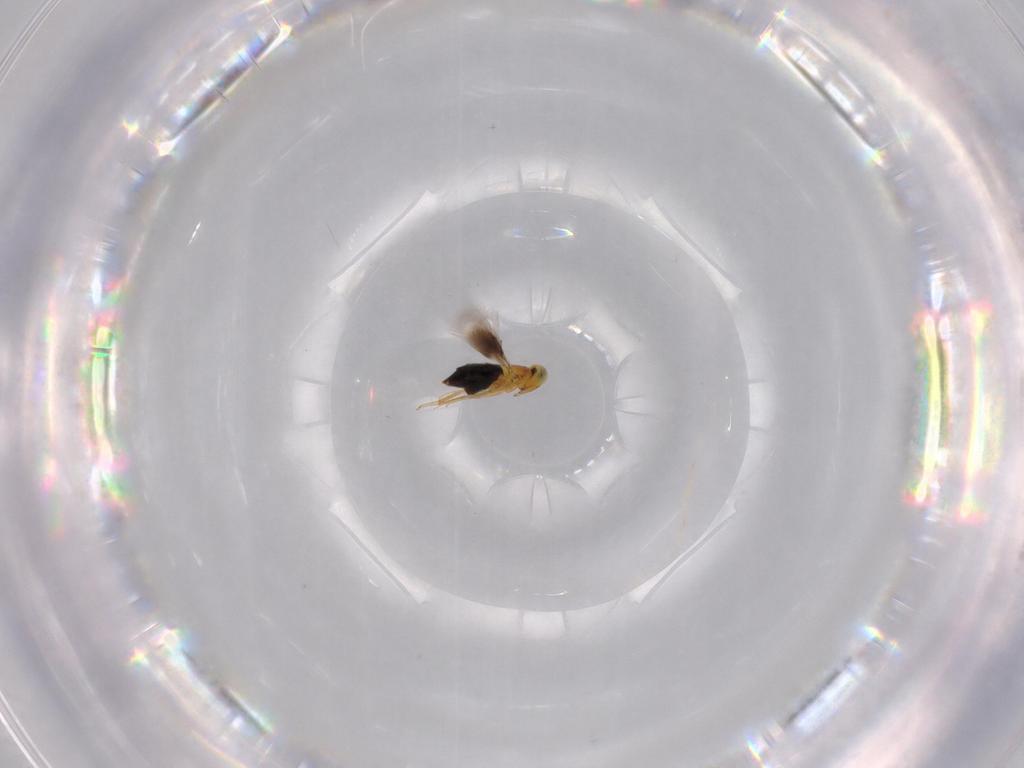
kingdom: Animalia
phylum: Arthropoda
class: Insecta
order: Hymenoptera
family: Signiphoridae
